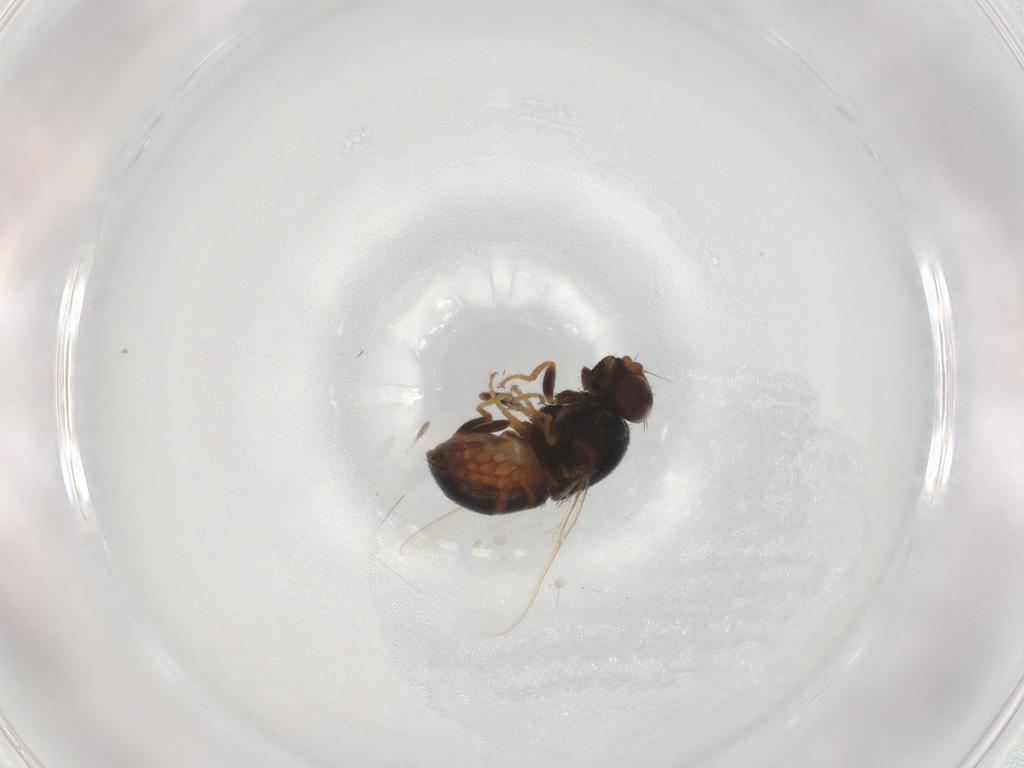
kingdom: Animalia
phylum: Arthropoda
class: Insecta
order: Diptera
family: Chloropidae
